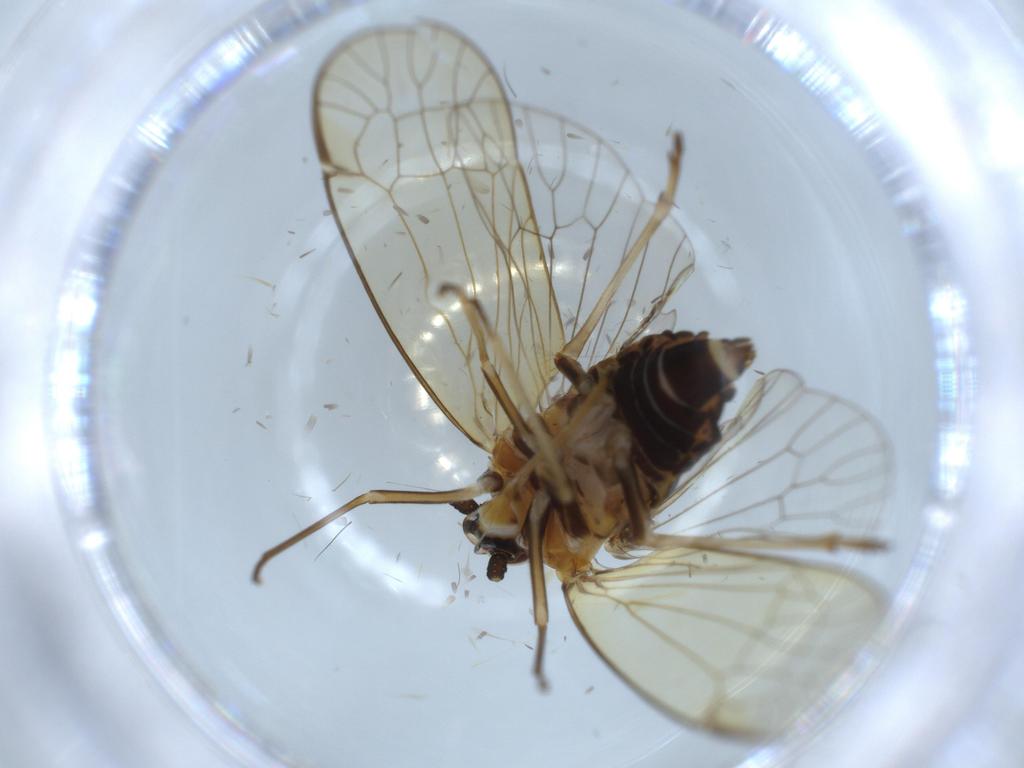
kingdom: Animalia
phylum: Arthropoda
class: Insecta
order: Hemiptera
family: Kinnaridae
